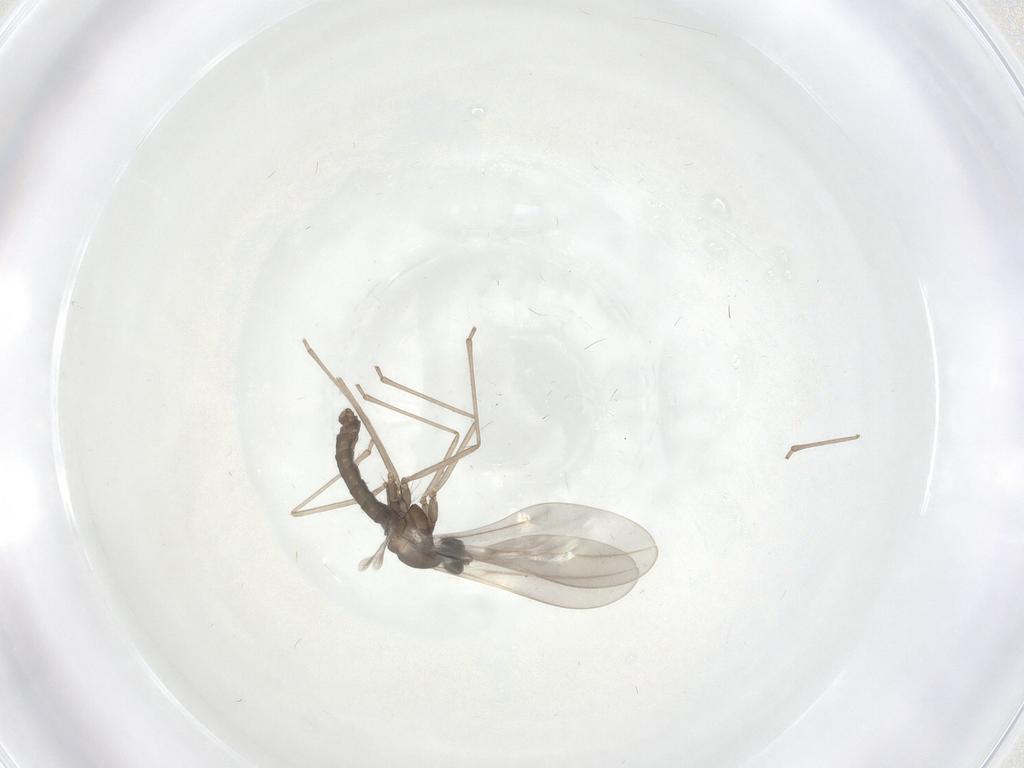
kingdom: Animalia
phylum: Arthropoda
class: Insecta
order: Diptera
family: Cecidomyiidae
